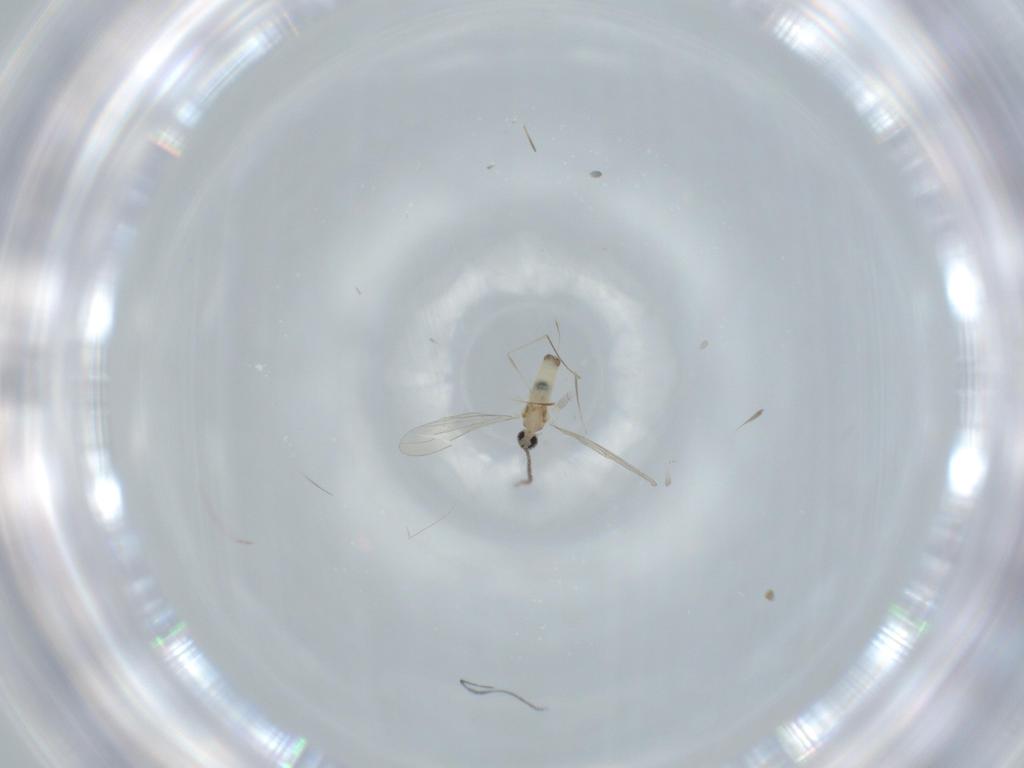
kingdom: Animalia
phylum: Arthropoda
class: Insecta
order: Diptera
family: Cecidomyiidae
